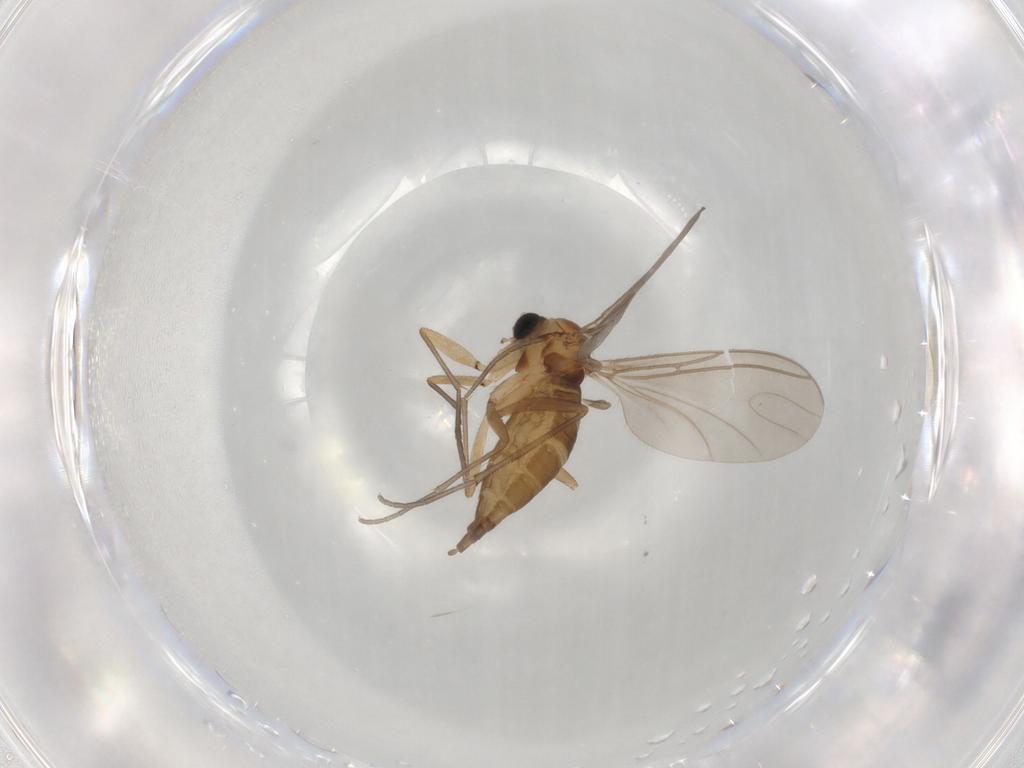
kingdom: Animalia
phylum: Arthropoda
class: Insecta
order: Diptera
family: Sciaridae
